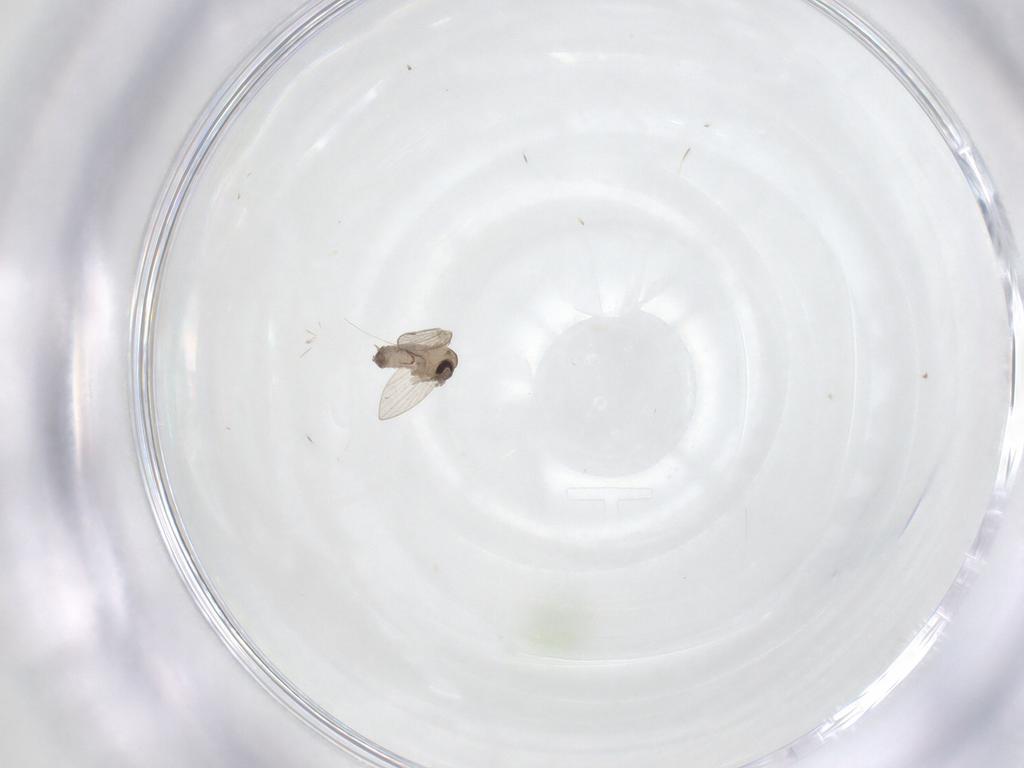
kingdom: Animalia
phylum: Arthropoda
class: Insecta
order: Diptera
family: Psychodidae
